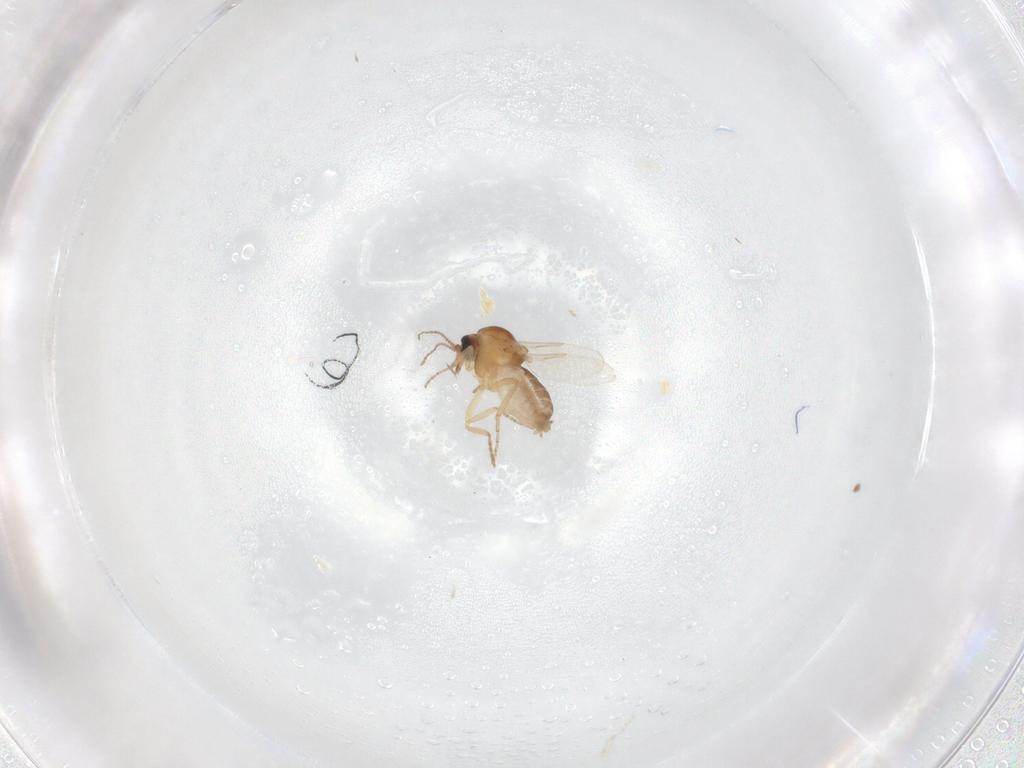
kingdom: Animalia
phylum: Arthropoda
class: Insecta
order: Diptera
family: Ceratopogonidae
